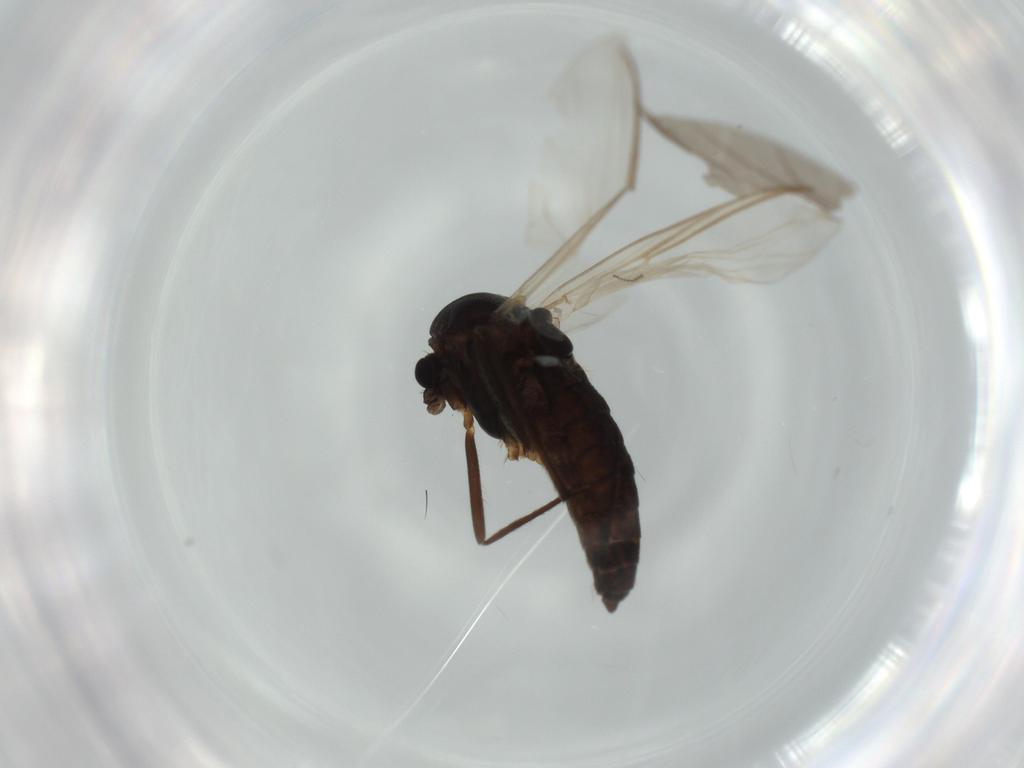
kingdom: Animalia
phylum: Arthropoda
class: Insecta
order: Diptera
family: Chironomidae
